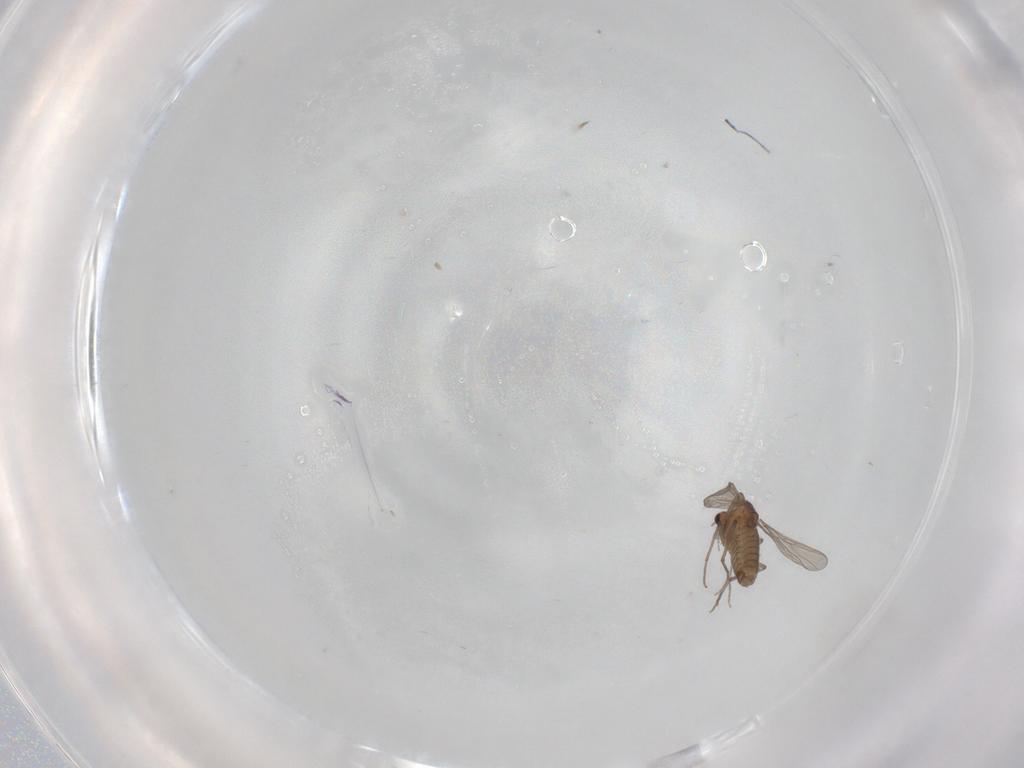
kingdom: Animalia
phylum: Arthropoda
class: Insecta
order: Diptera
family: Chironomidae
